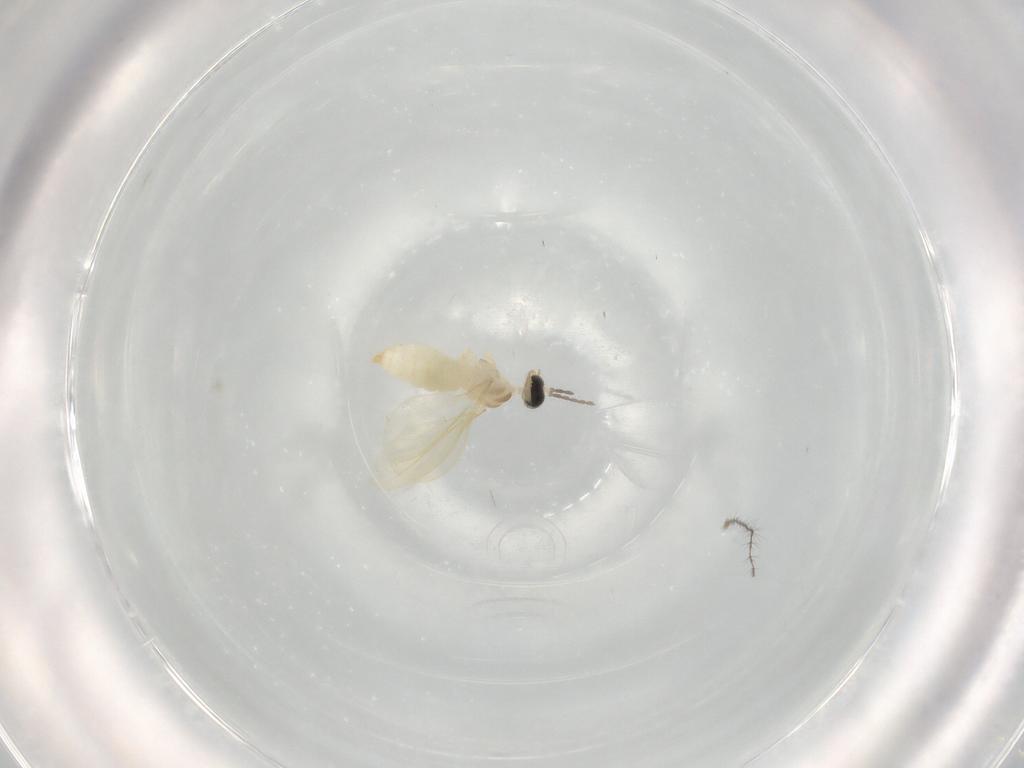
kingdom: Animalia
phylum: Arthropoda
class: Insecta
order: Diptera
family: Cecidomyiidae
